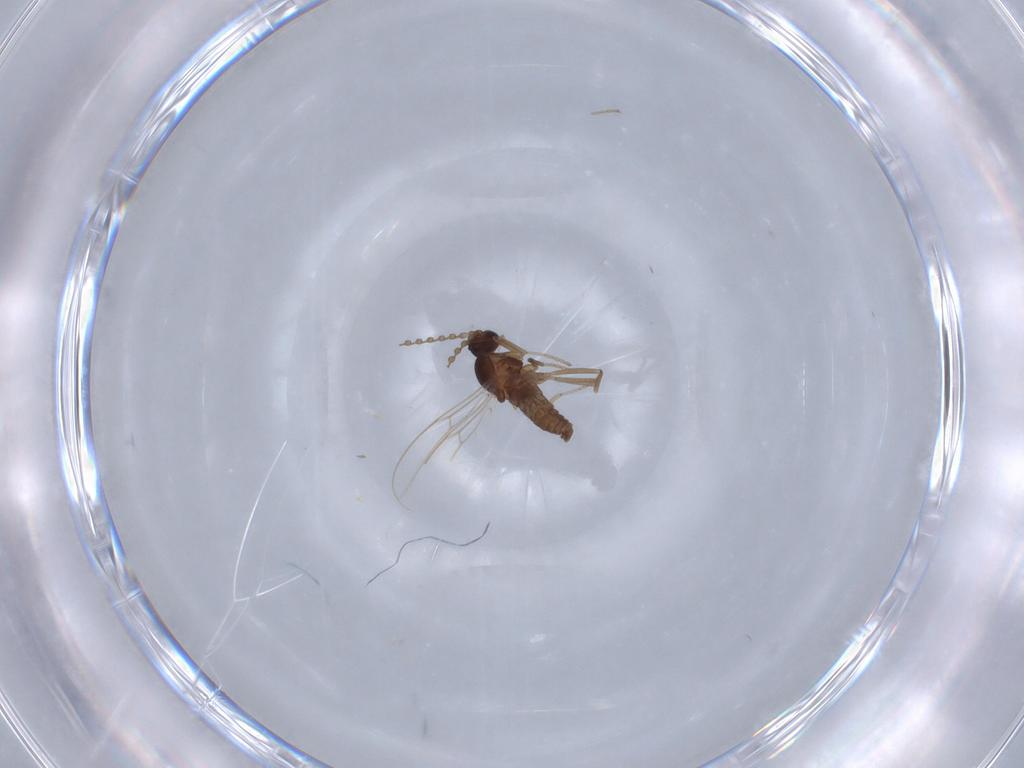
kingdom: Animalia
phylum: Arthropoda
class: Insecta
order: Diptera
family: Cecidomyiidae
